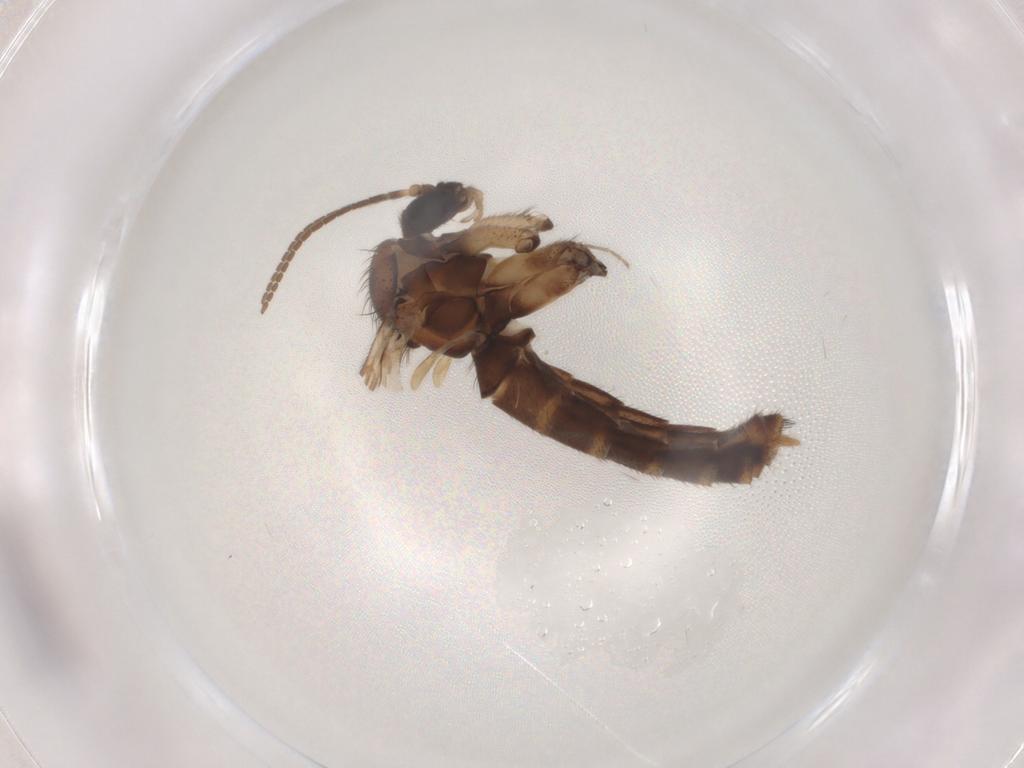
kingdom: Animalia
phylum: Arthropoda
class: Insecta
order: Diptera
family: Mycetophilidae
